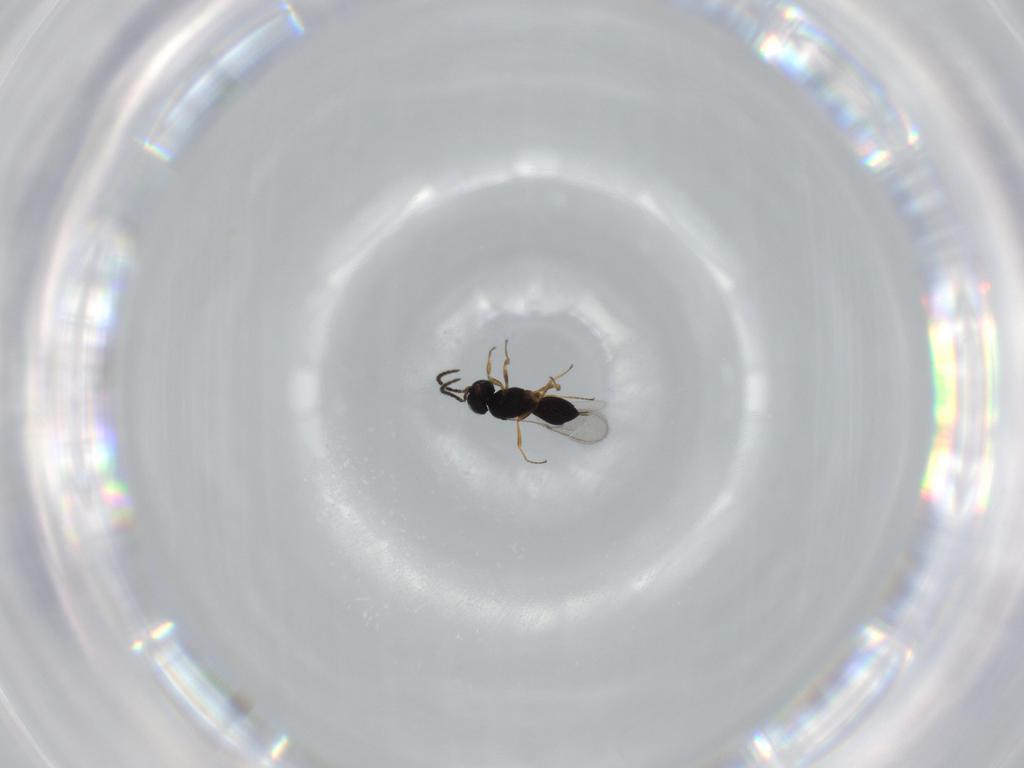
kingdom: Animalia
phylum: Arthropoda
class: Insecta
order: Hymenoptera
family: Scelionidae
